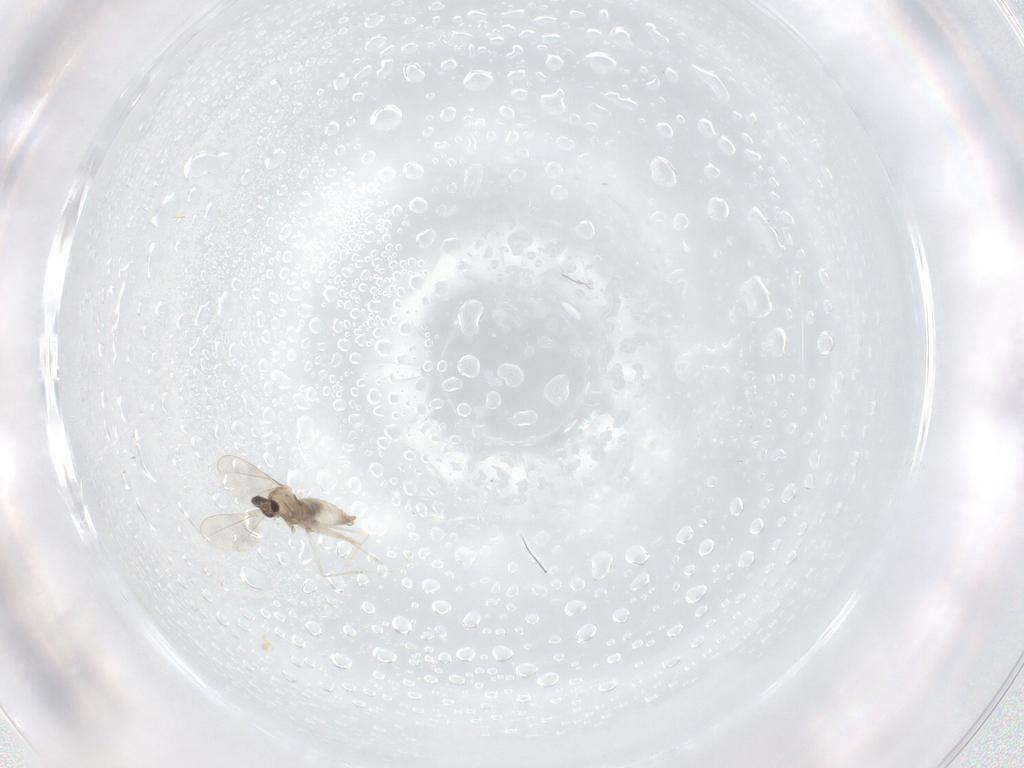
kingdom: Animalia
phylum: Arthropoda
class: Insecta
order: Diptera
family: Cecidomyiidae
